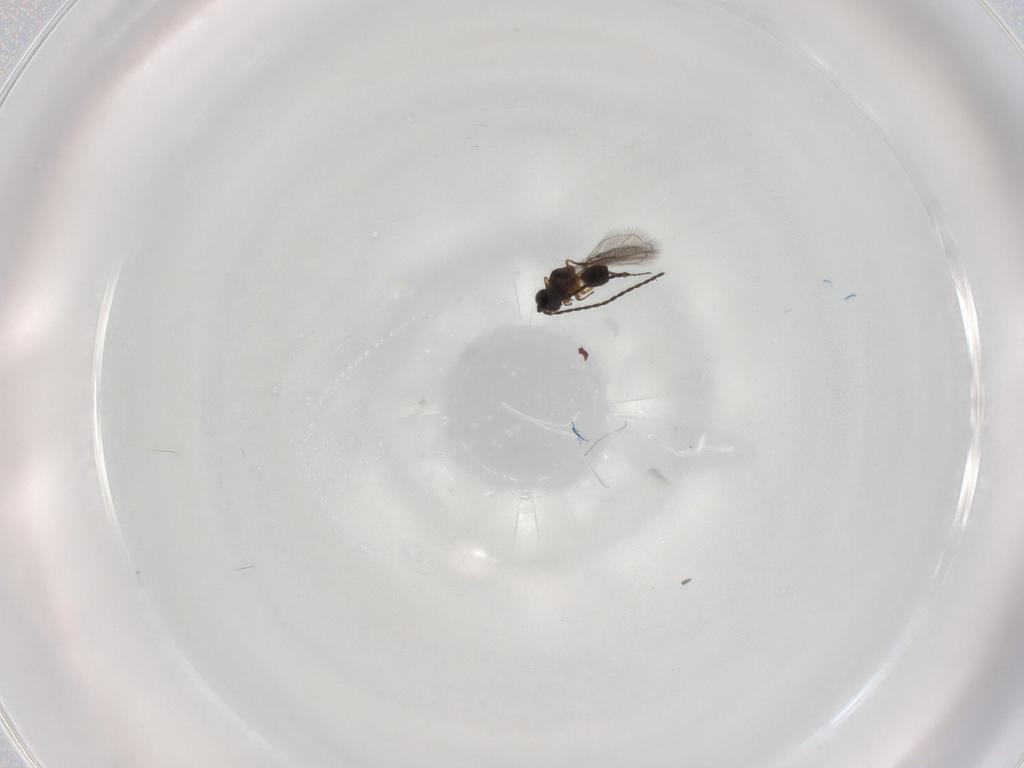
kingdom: Animalia
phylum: Arthropoda
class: Insecta
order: Hymenoptera
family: Figitidae
